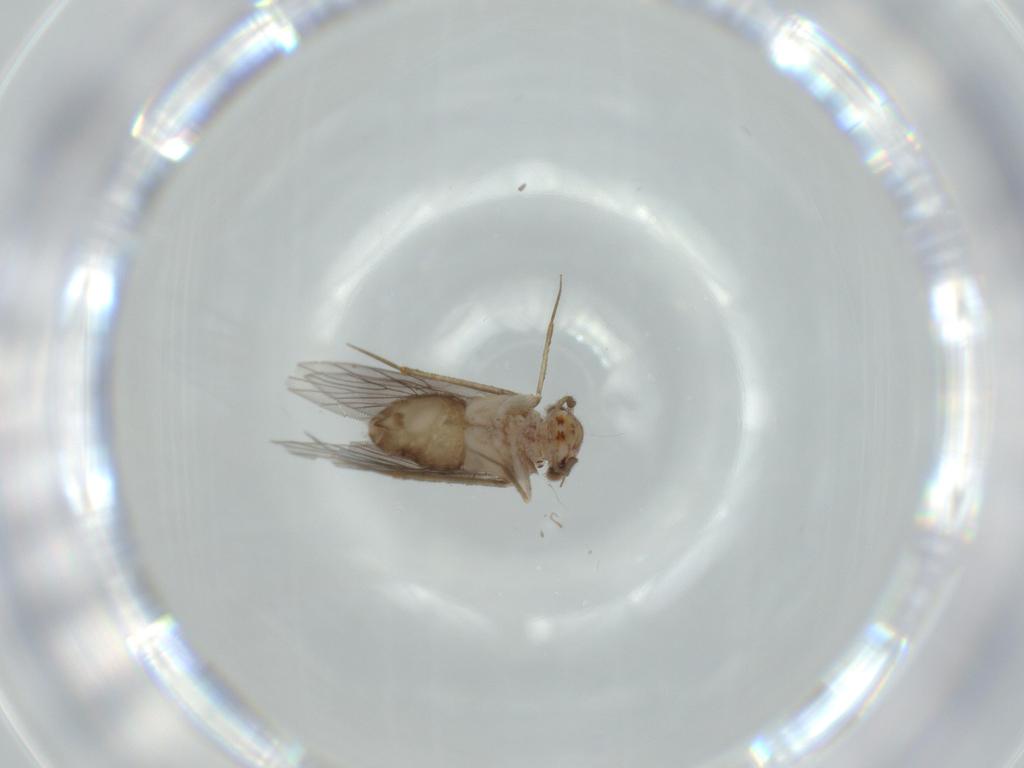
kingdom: Animalia
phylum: Arthropoda
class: Insecta
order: Psocodea
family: Lepidopsocidae
